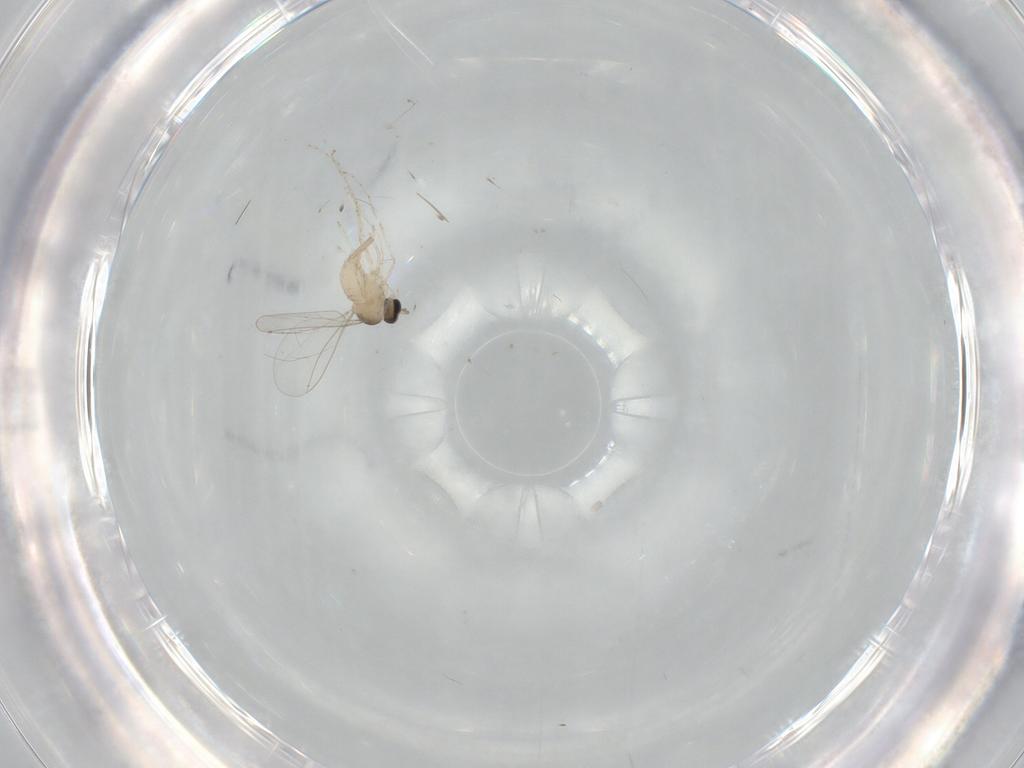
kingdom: Animalia
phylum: Arthropoda
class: Insecta
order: Diptera
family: Cecidomyiidae
